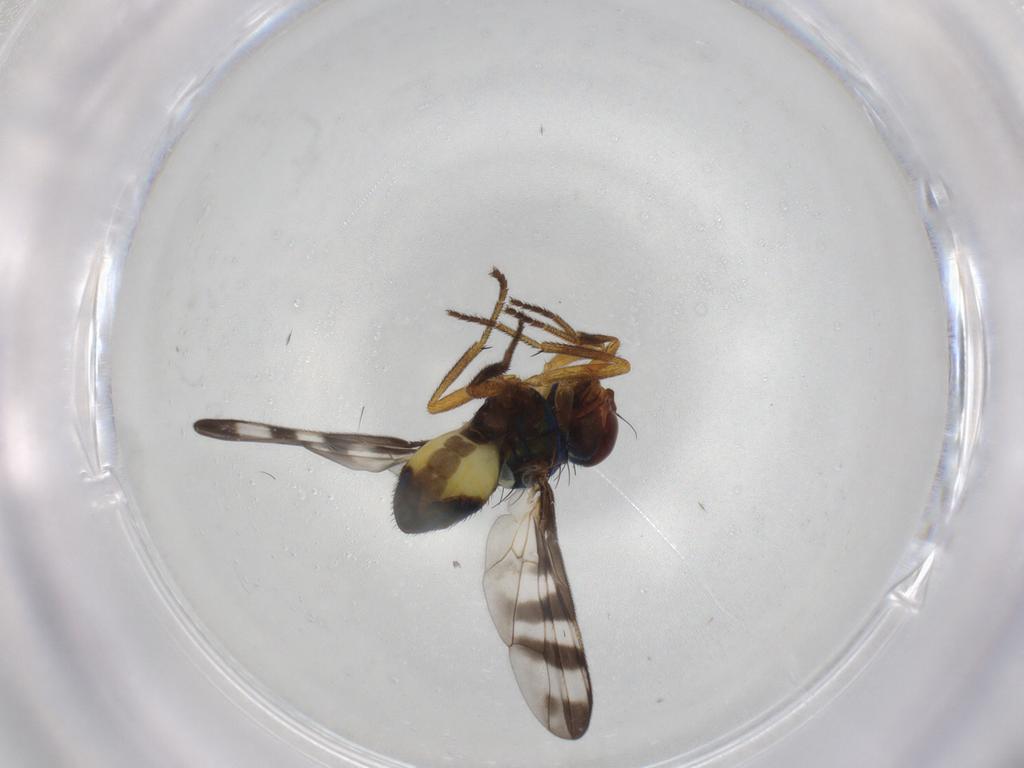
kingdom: Animalia
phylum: Arthropoda
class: Insecta
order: Diptera
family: Platystomatidae
